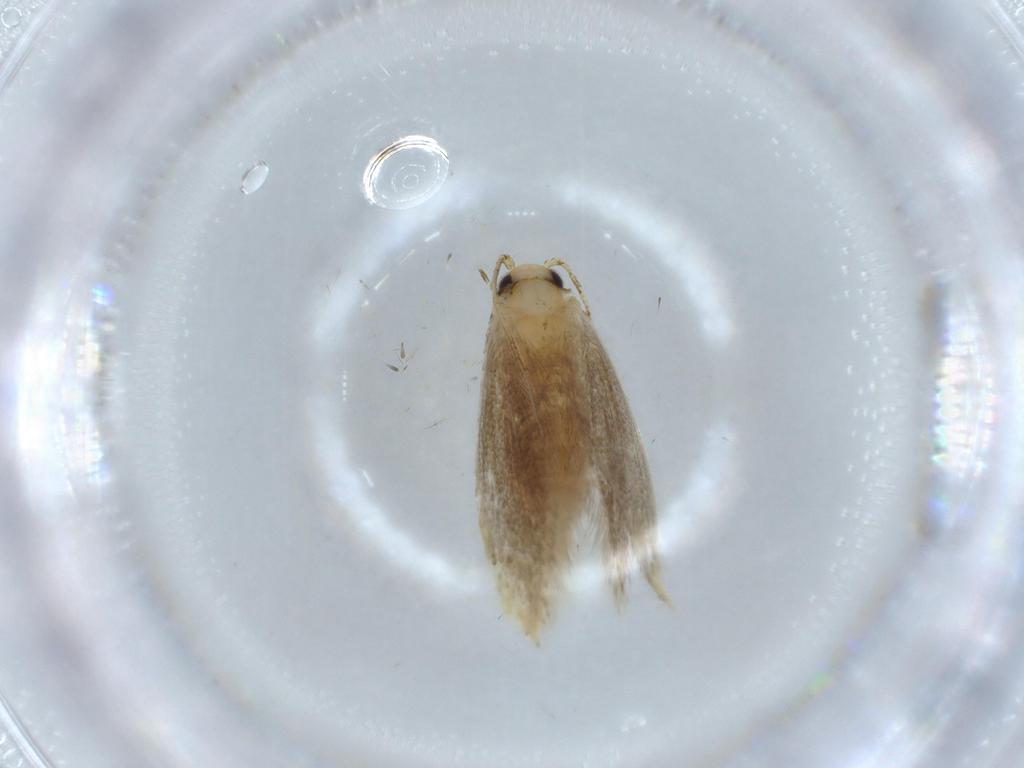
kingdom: Animalia
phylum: Arthropoda
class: Insecta
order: Lepidoptera
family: Tineidae
